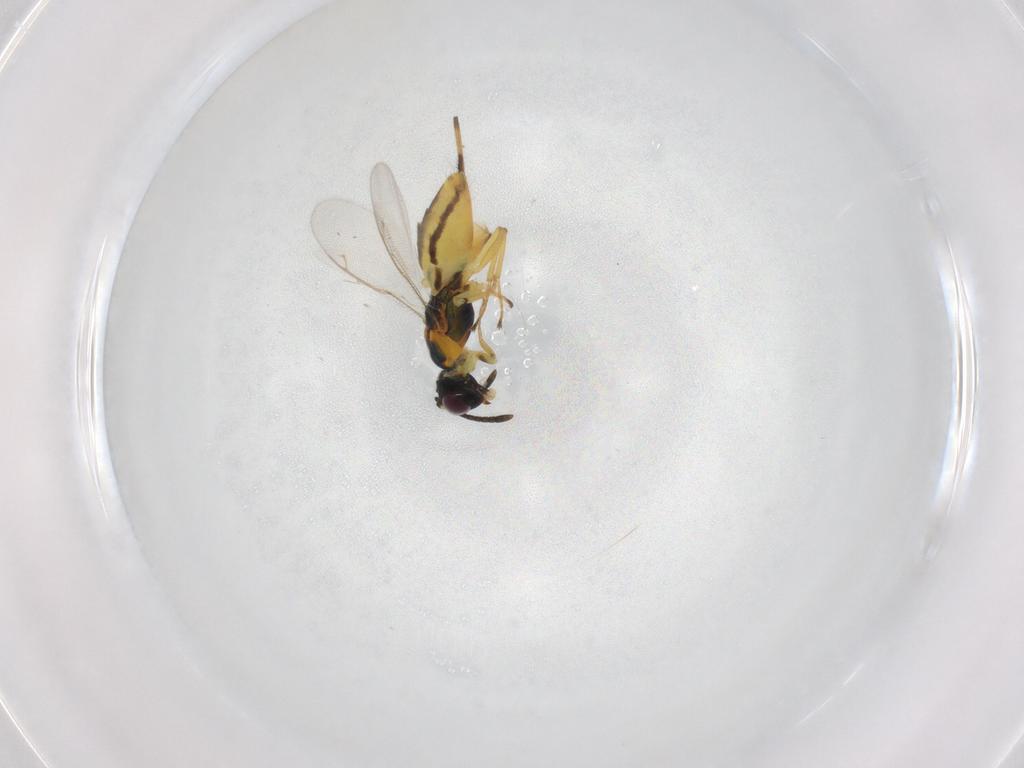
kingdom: Animalia
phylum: Arthropoda
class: Insecta
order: Hymenoptera
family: Eupelmidae
